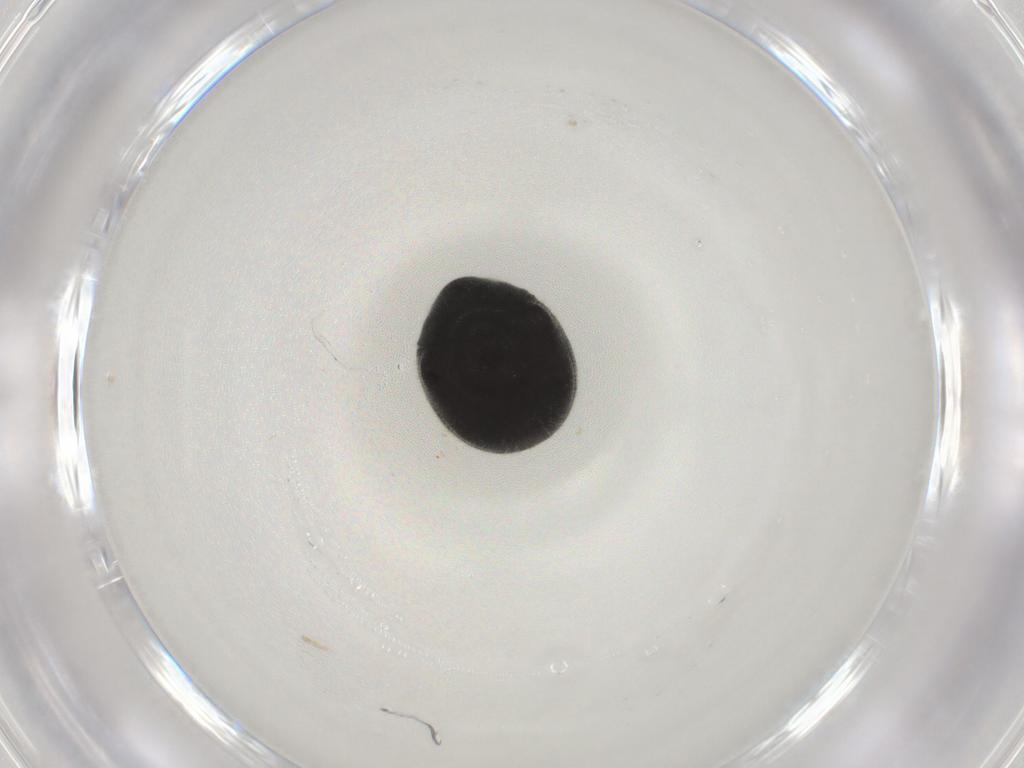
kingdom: Animalia
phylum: Arthropoda
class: Insecta
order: Coleoptera
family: Ptinidae
